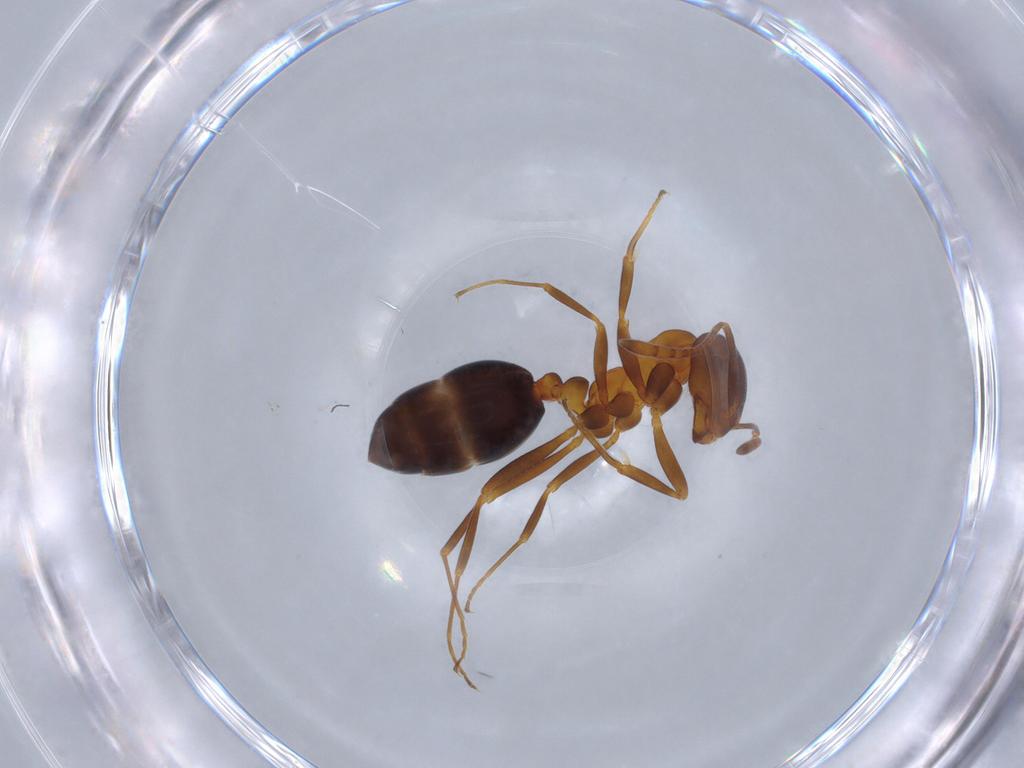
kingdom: Animalia
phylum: Arthropoda
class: Insecta
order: Hymenoptera
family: Formicidae
